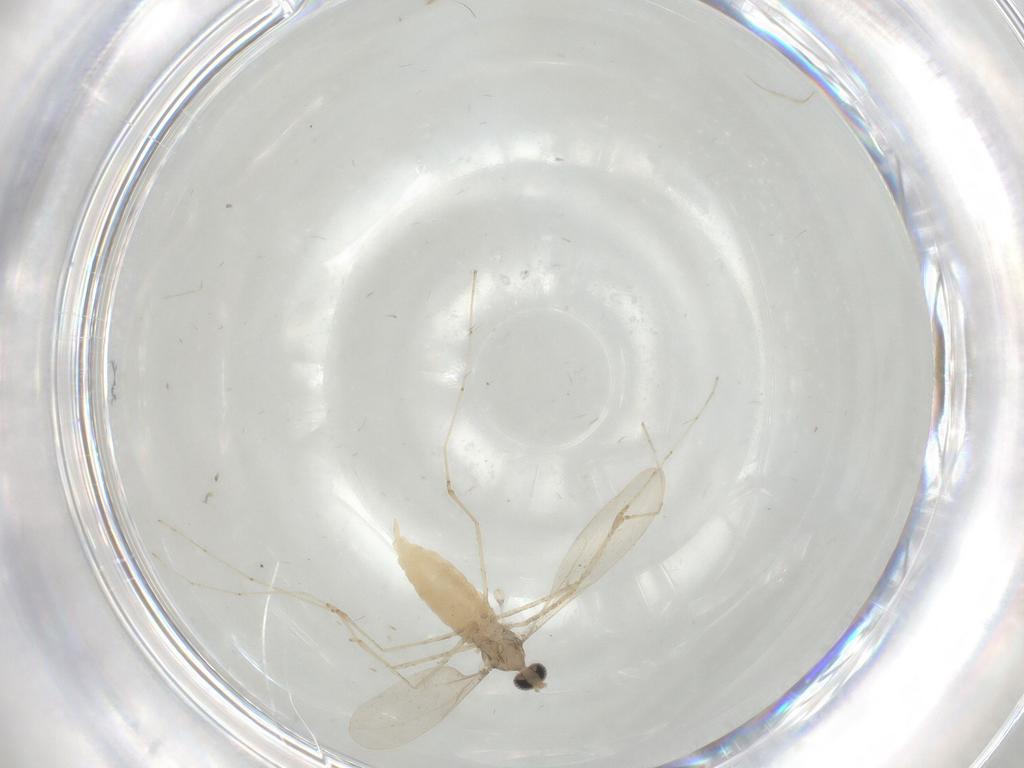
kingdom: Animalia
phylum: Arthropoda
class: Insecta
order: Diptera
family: Cecidomyiidae
